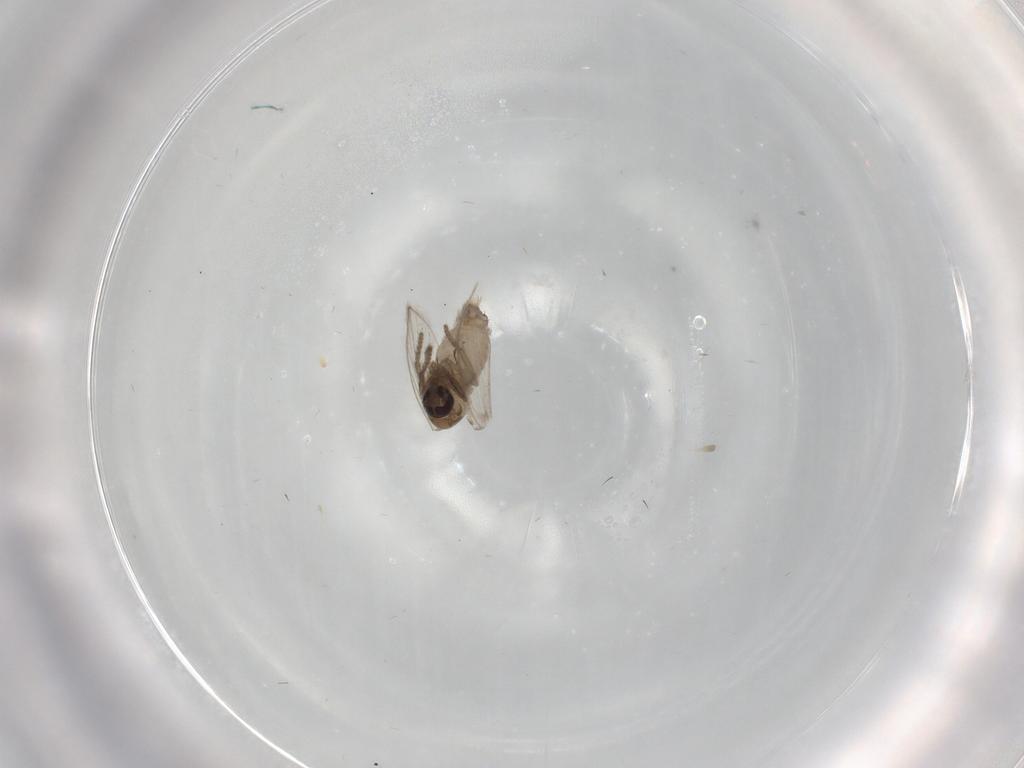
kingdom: Animalia
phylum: Arthropoda
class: Insecta
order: Diptera
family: Psychodidae
